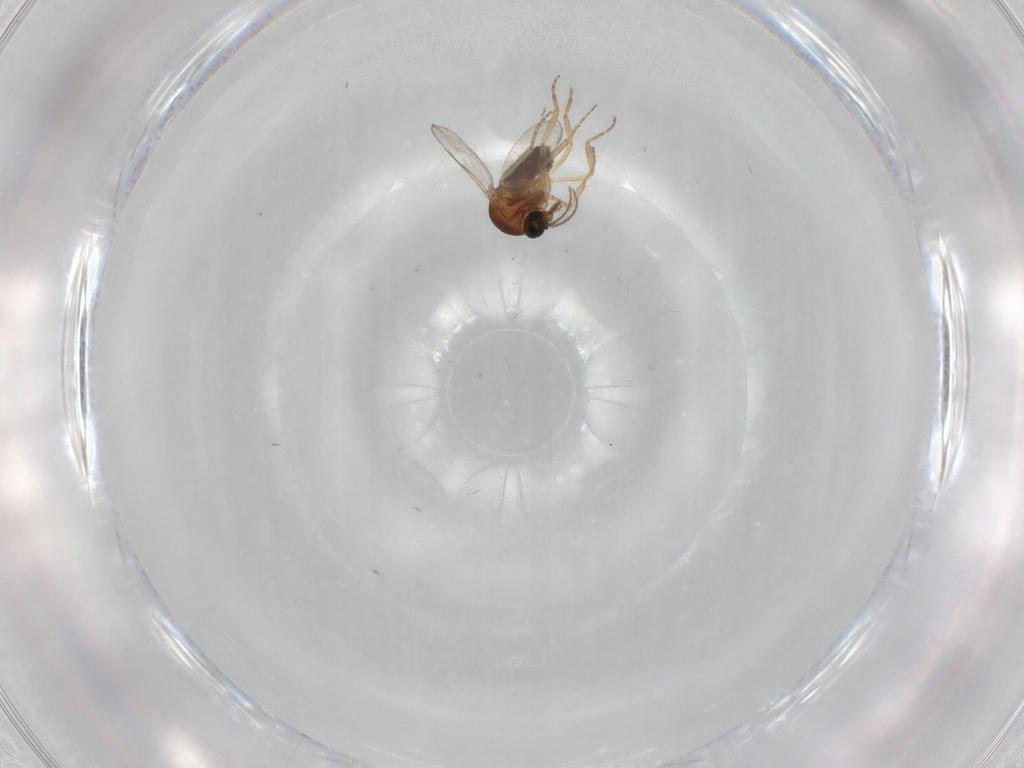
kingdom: Animalia
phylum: Arthropoda
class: Insecta
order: Diptera
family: Ceratopogonidae
